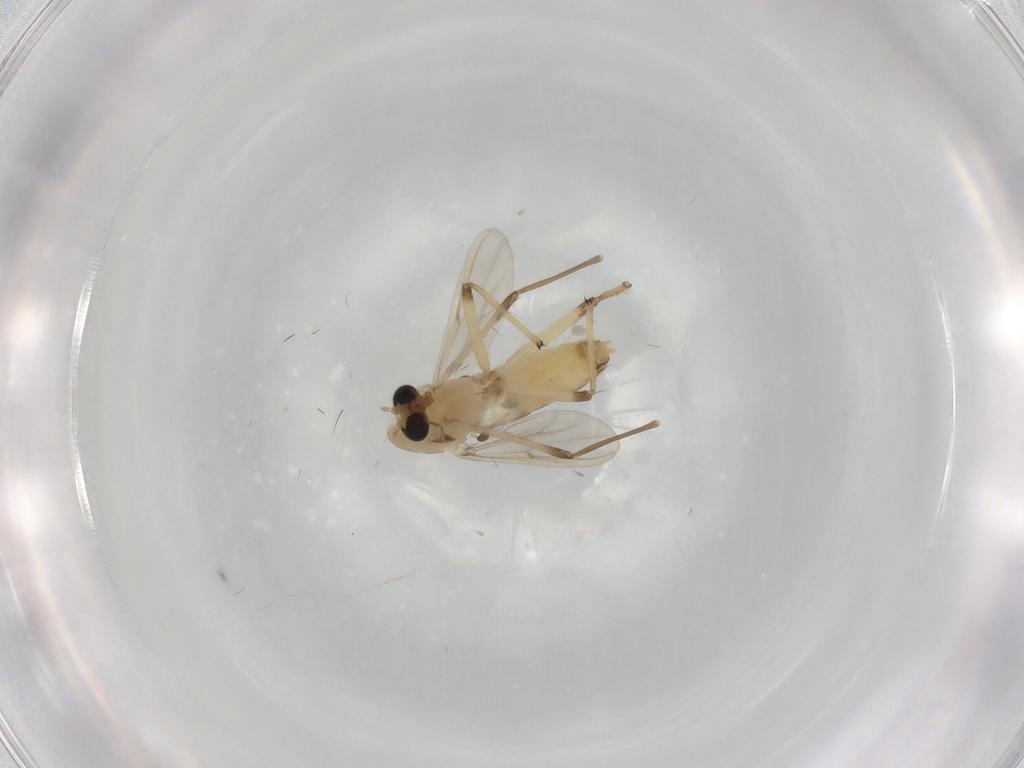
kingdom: Animalia
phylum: Arthropoda
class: Insecta
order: Diptera
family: Chironomidae
